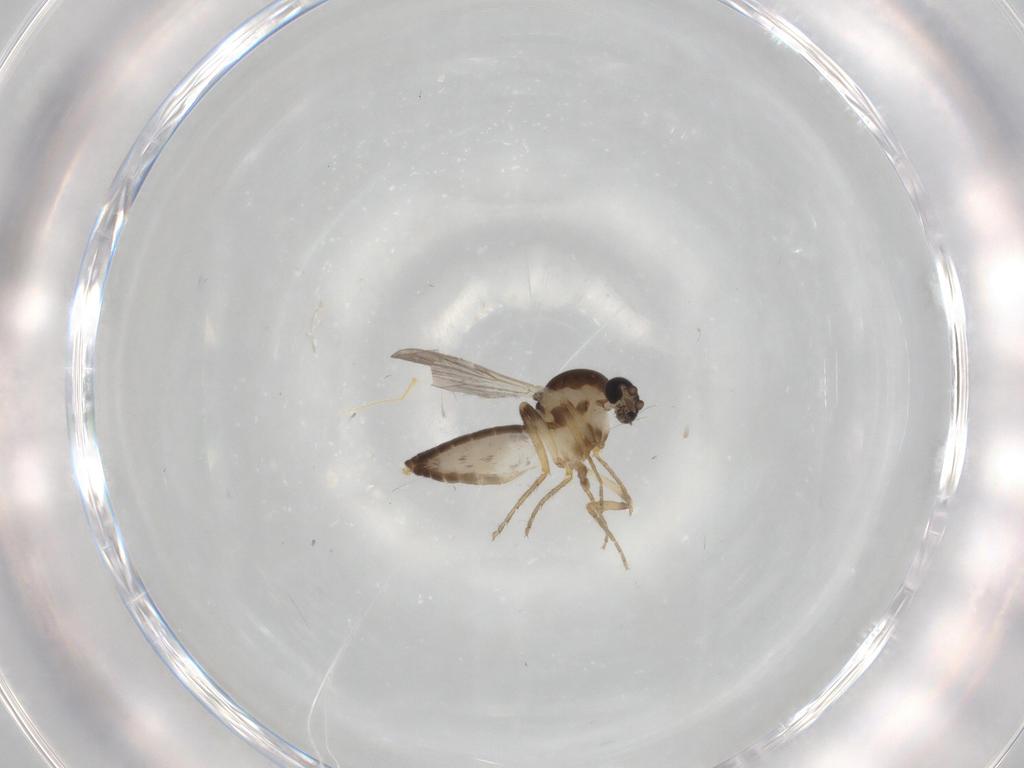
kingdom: Animalia
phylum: Arthropoda
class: Insecta
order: Diptera
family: Ceratopogonidae
